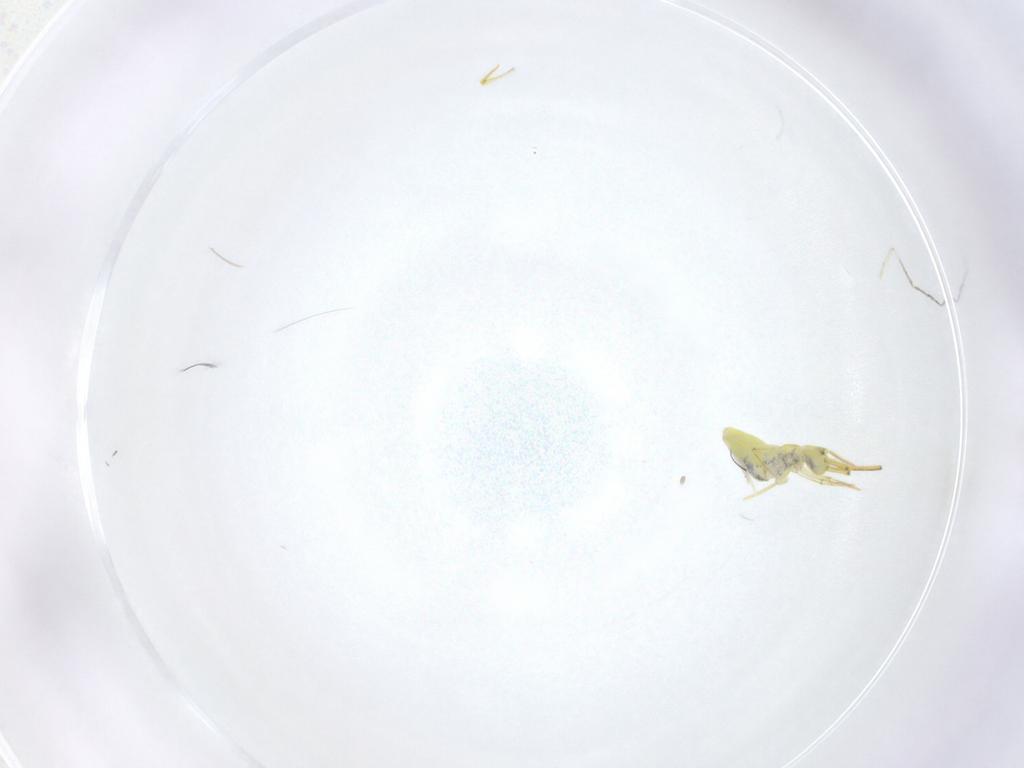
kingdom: Animalia
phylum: Arthropoda
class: Collembola
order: Entomobryomorpha
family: Entomobryidae
